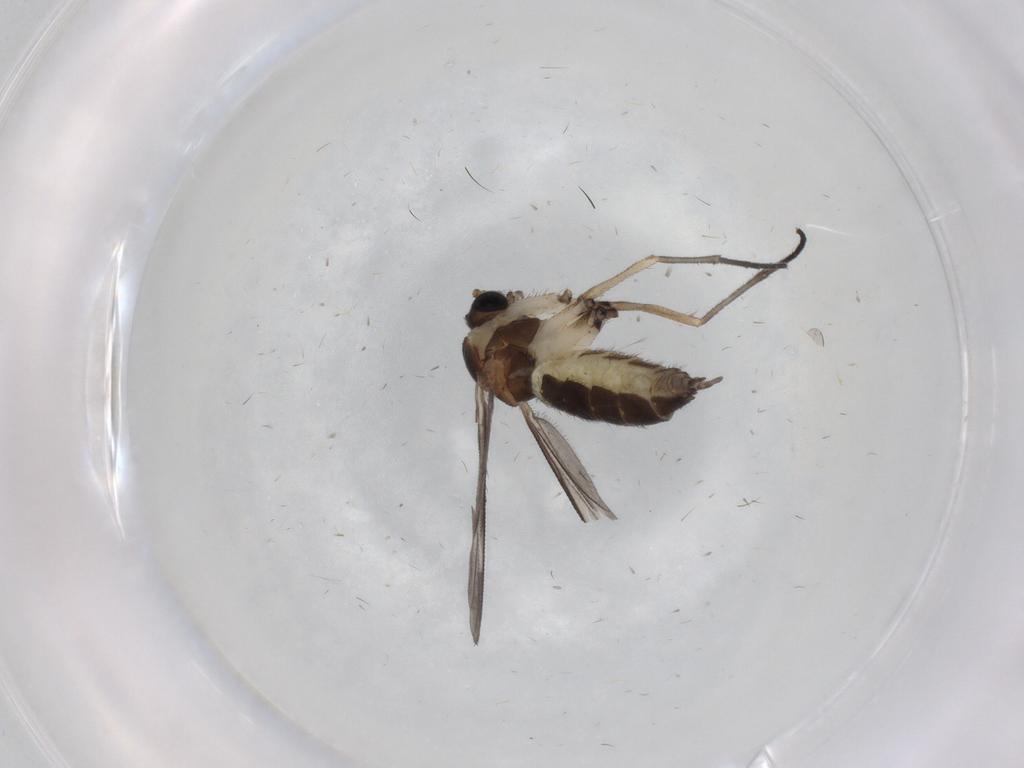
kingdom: Animalia
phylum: Arthropoda
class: Insecta
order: Diptera
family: Sciaridae
